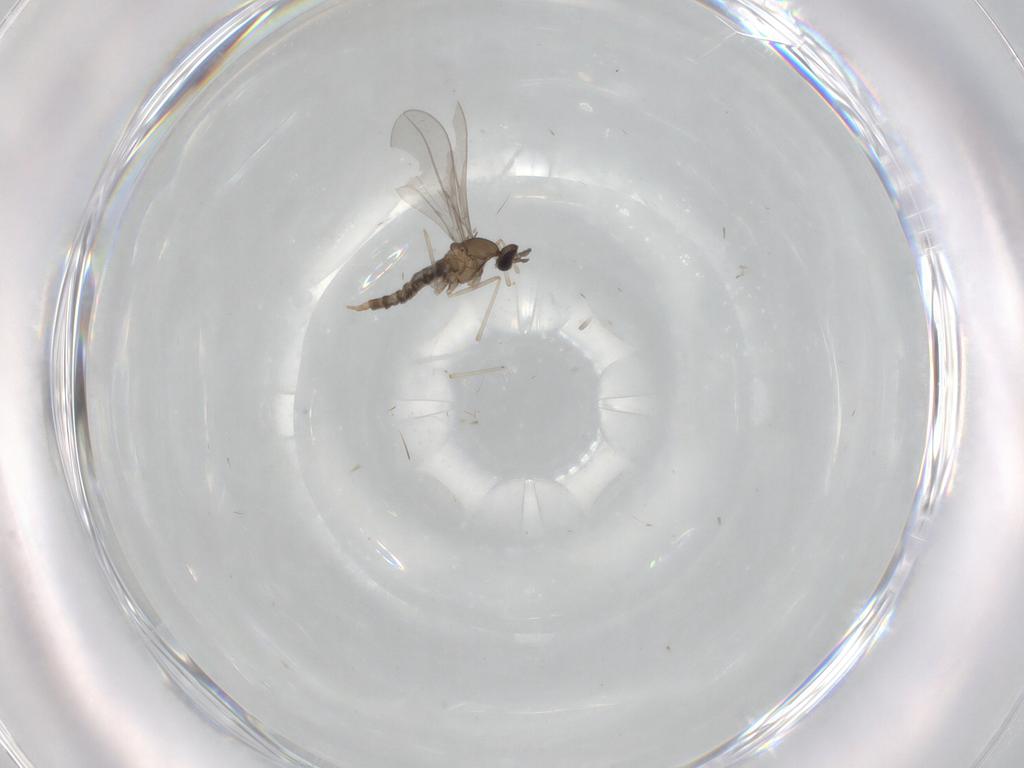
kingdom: Animalia
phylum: Arthropoda
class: Insecta
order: Diptera
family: Cecidomyiidae
